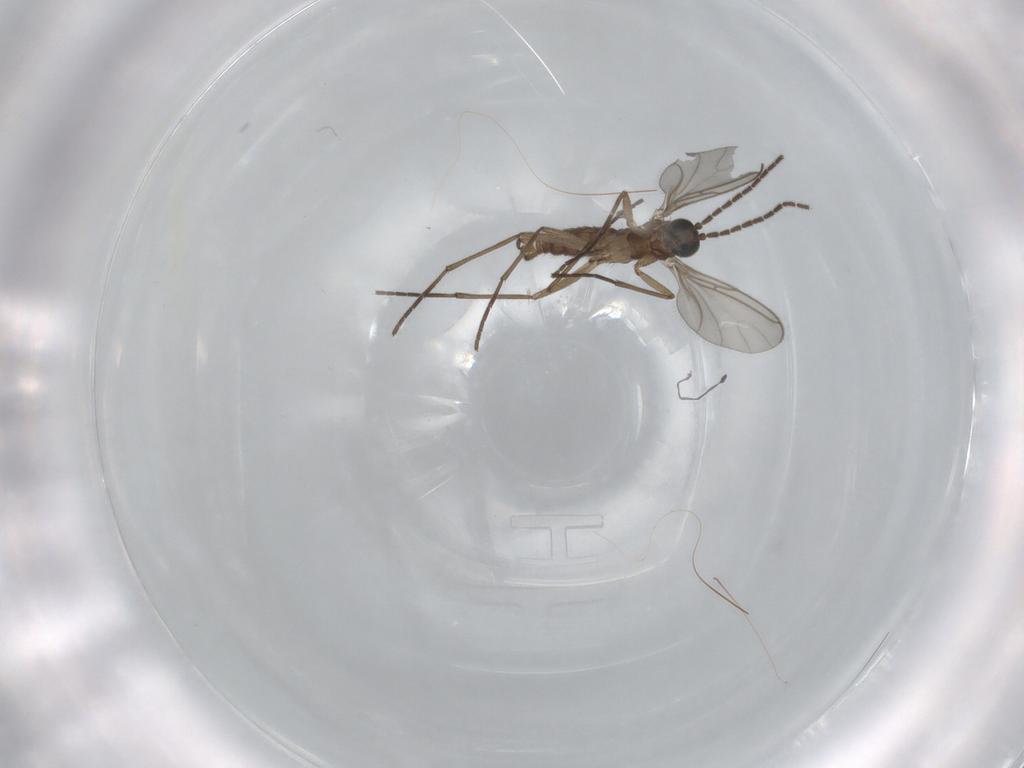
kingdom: Animalia
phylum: Arthropoda
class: Insecta
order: Diptera
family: Sciaridae
